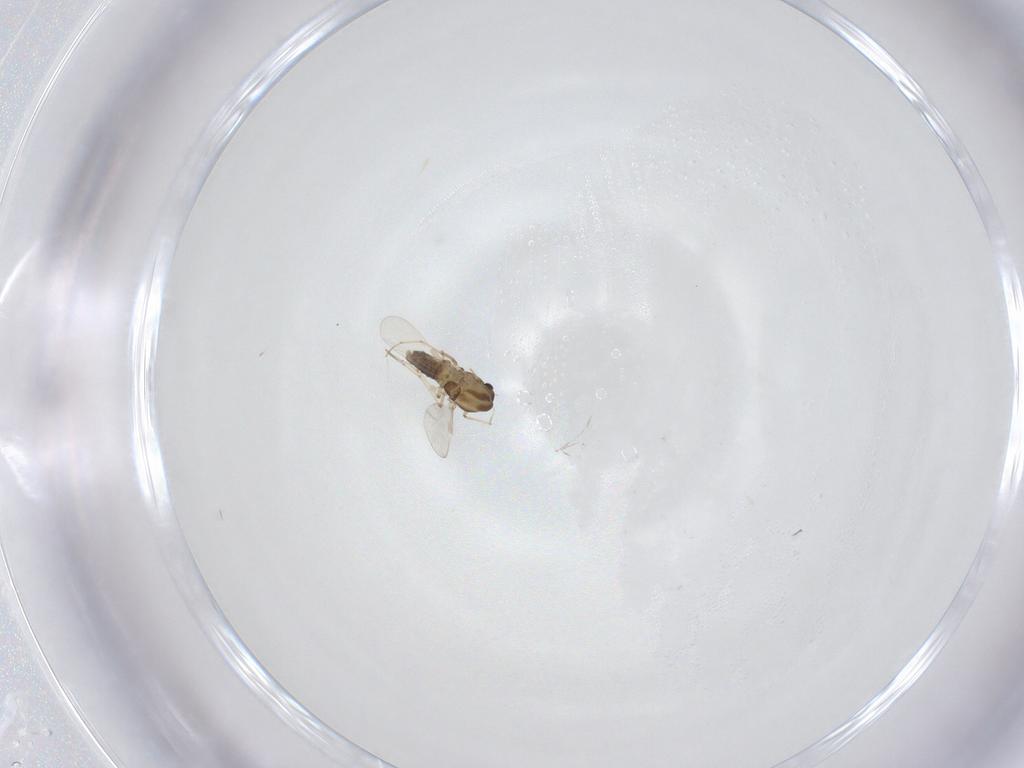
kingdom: Animalia
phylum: Arthropoda
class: Insecta
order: Diptera
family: Chironomidae
